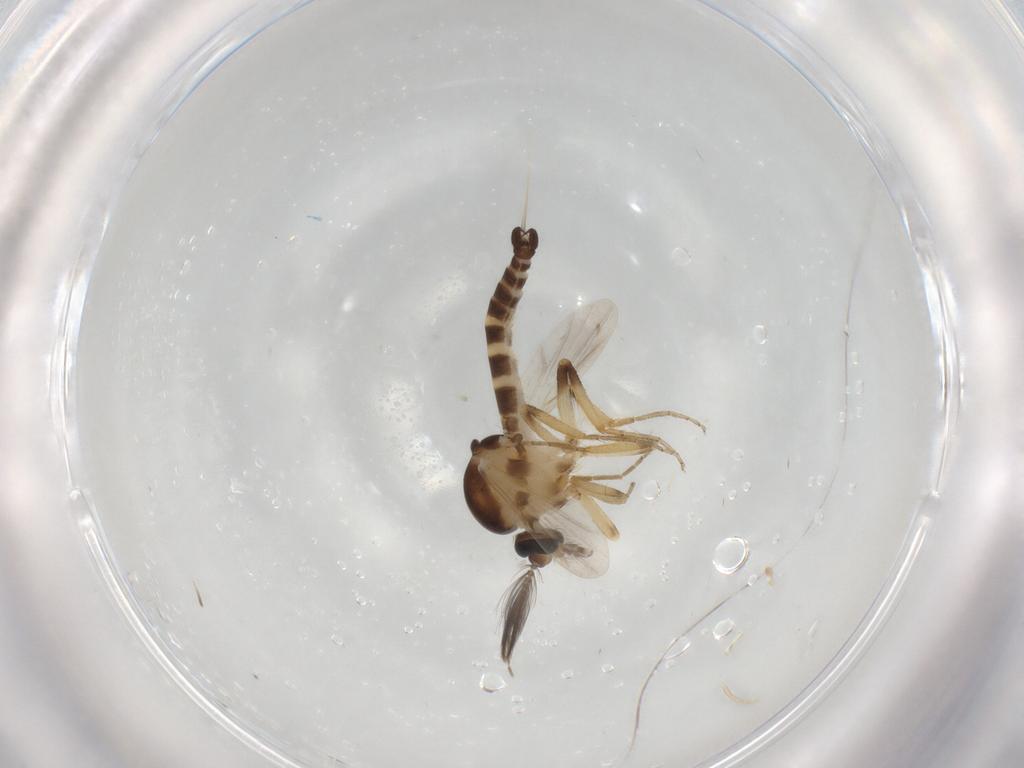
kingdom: Animalia
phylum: Arthropoda
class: Insecta
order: Diptera
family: Ceratopogonidae
